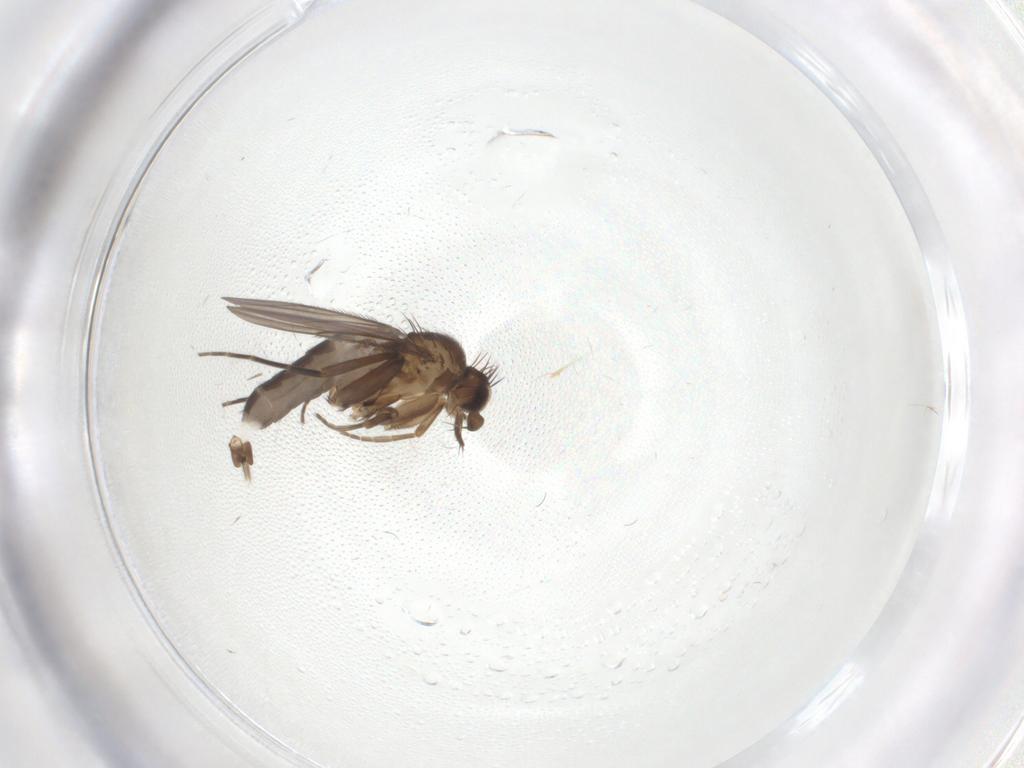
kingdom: Animalia
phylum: Arthropoda
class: Insecta
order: Diptera
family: Phoridae
